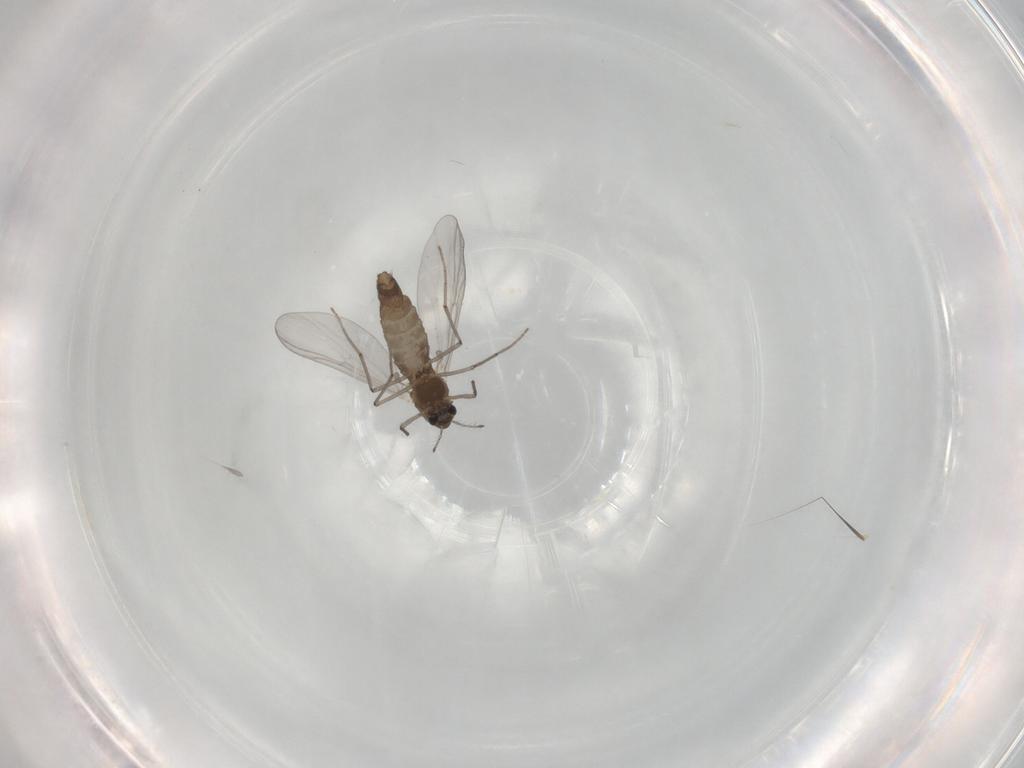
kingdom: Animalia
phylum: Arthropoda
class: Insecta
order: Diptera
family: Chironomidae
